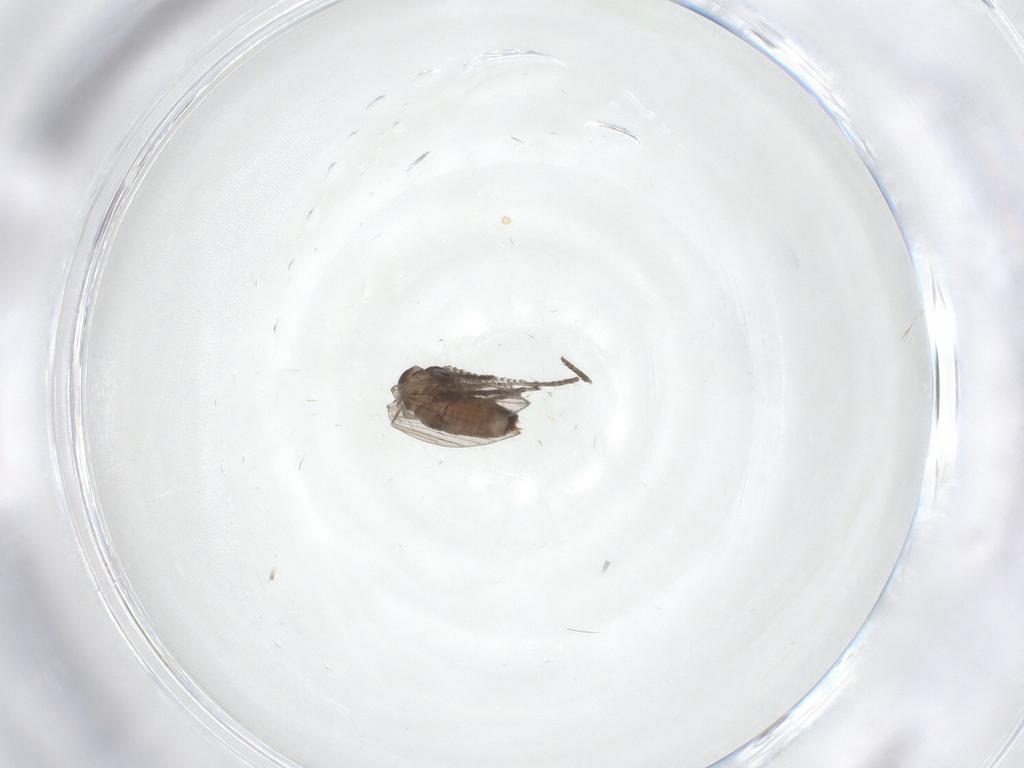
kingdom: Animalia
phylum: Arthropoda
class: Insecta
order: Diptera
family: Psychodidae
